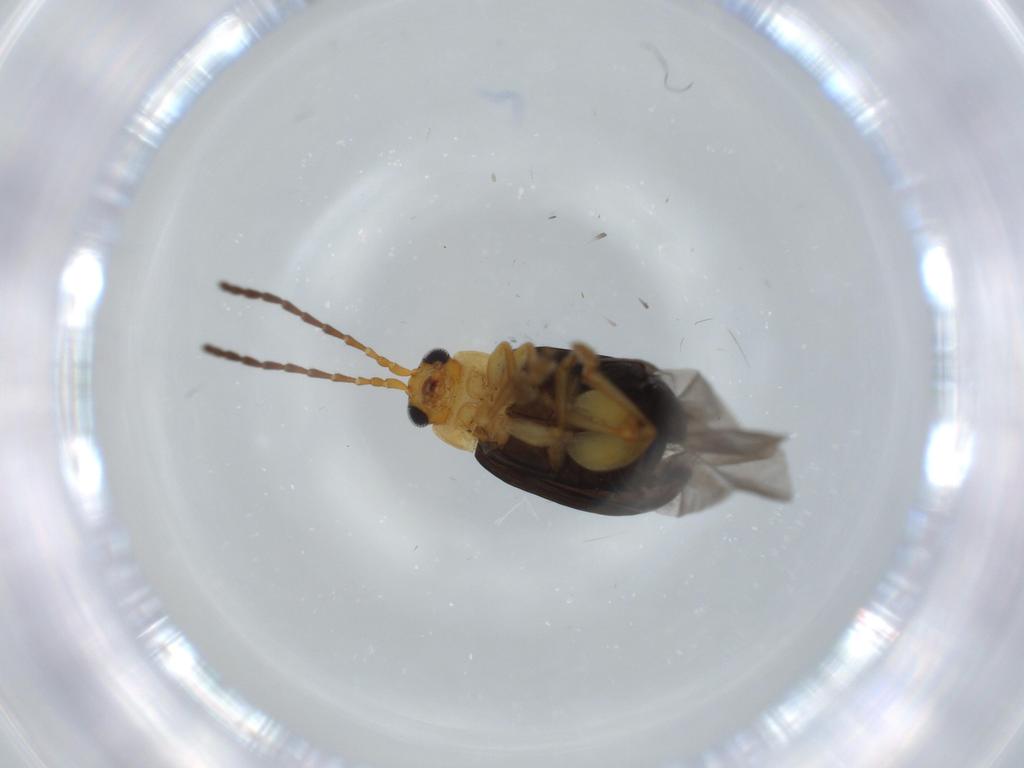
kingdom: Animalia
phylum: Arthropoda
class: Insecta
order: Coleoptera
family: Chrysomelidae
